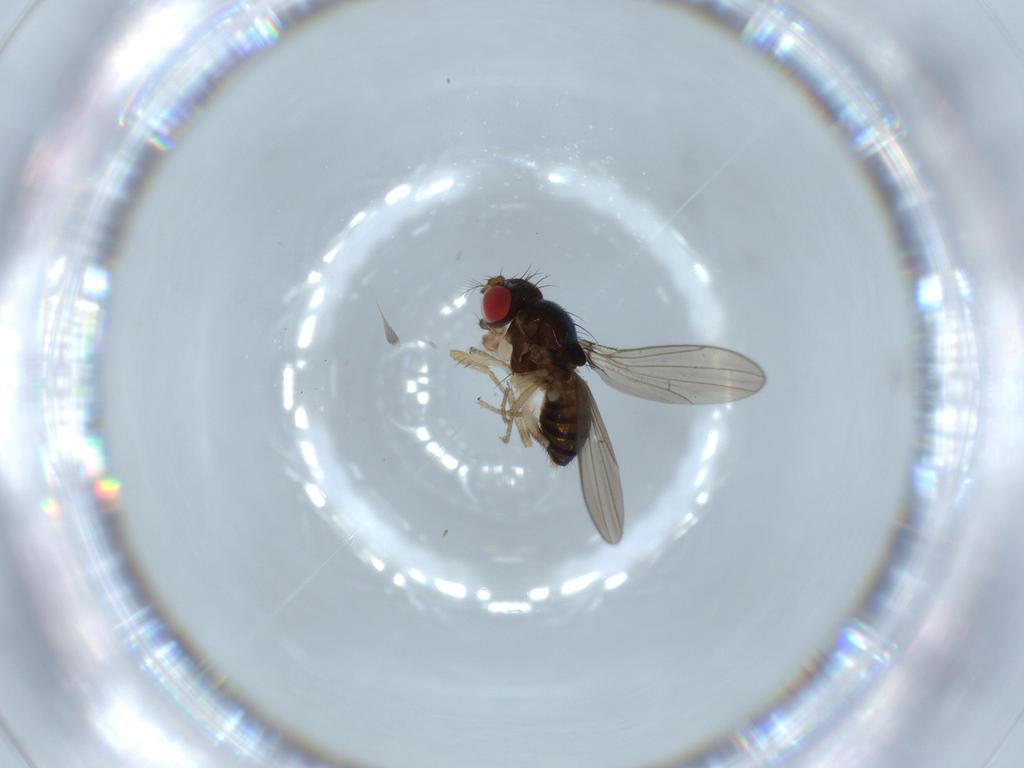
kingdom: Animalia
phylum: Arthropoda
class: Insecta
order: Diptera
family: Drosophilidae
